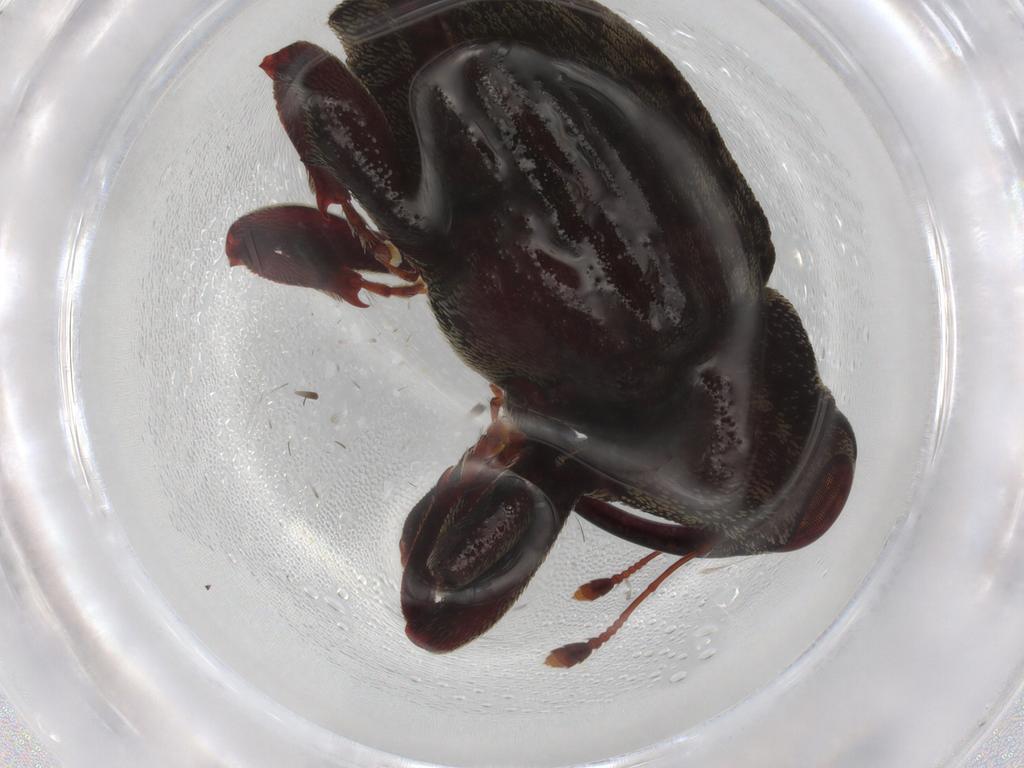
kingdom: Animalia
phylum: Arthropoda
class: Insecta
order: Coleoptera
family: Curculionidae
